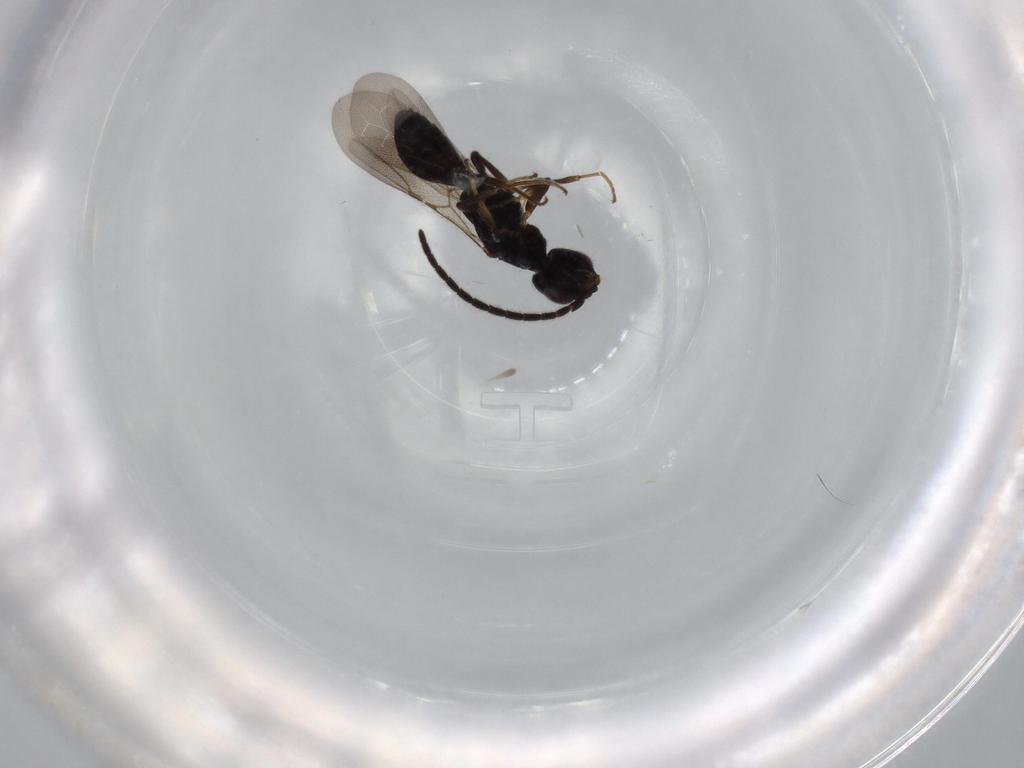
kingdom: Animalia
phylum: Arthropoda
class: Insecta
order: Hymenoptera
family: Bethylidae
